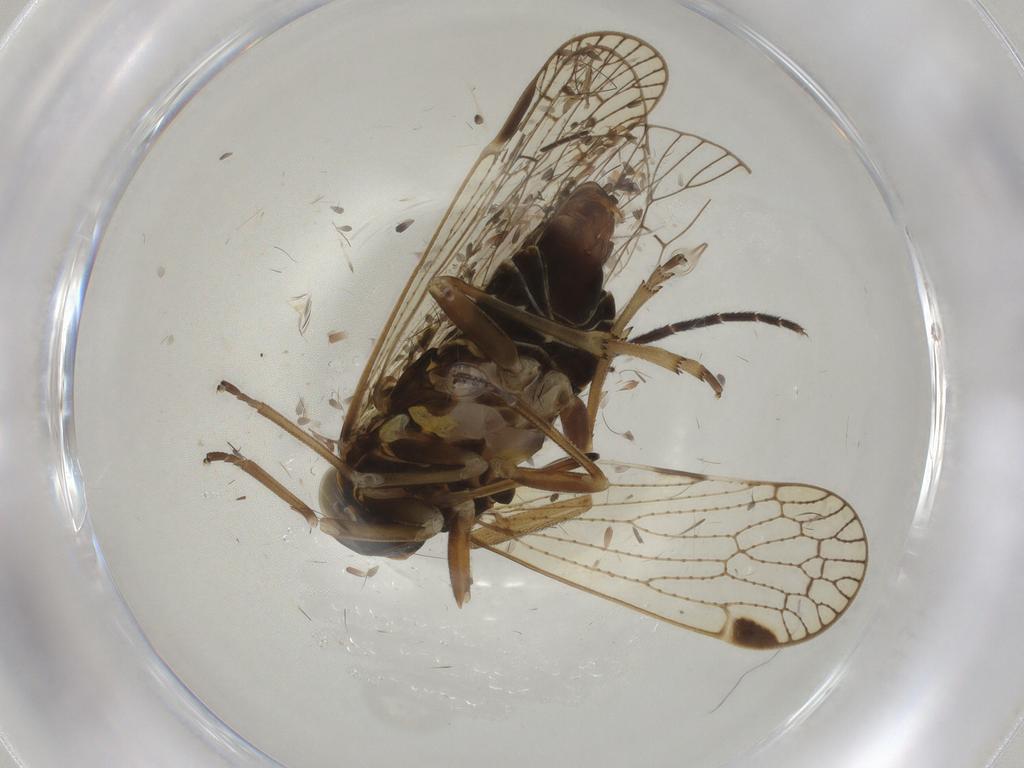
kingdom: Animalia
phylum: Arthropoda
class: Insecta
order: Hemiptera
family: Cixiidae
